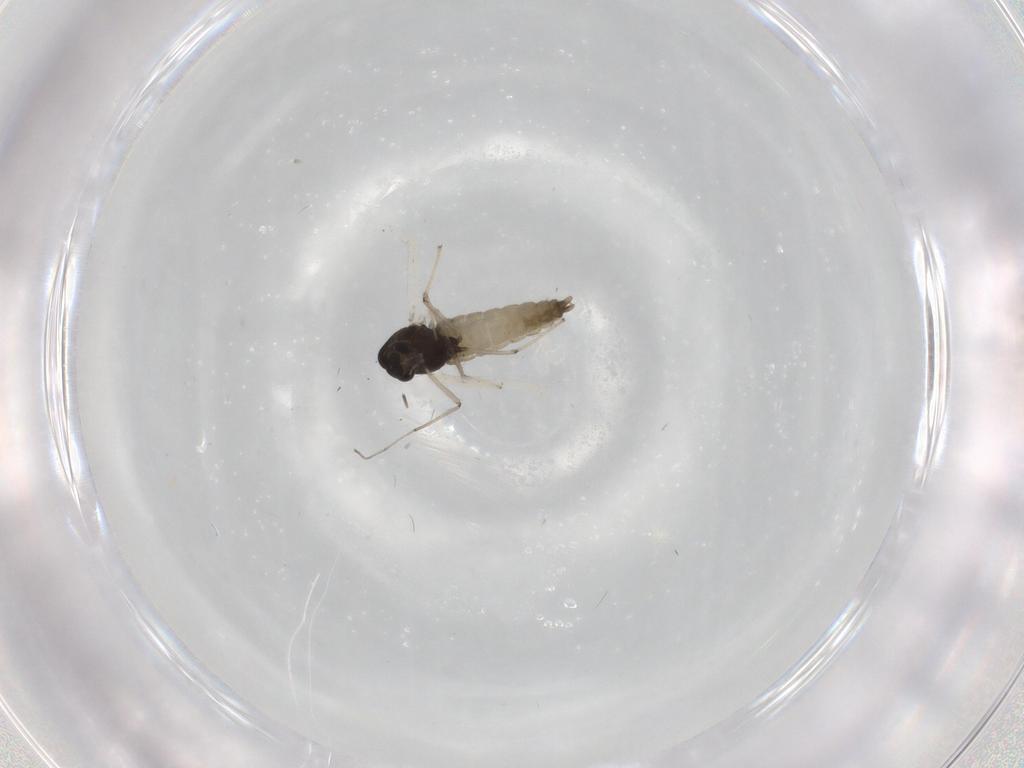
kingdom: Animalia
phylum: Arthropoda
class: Insecta
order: Diptera
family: Chironomidae
